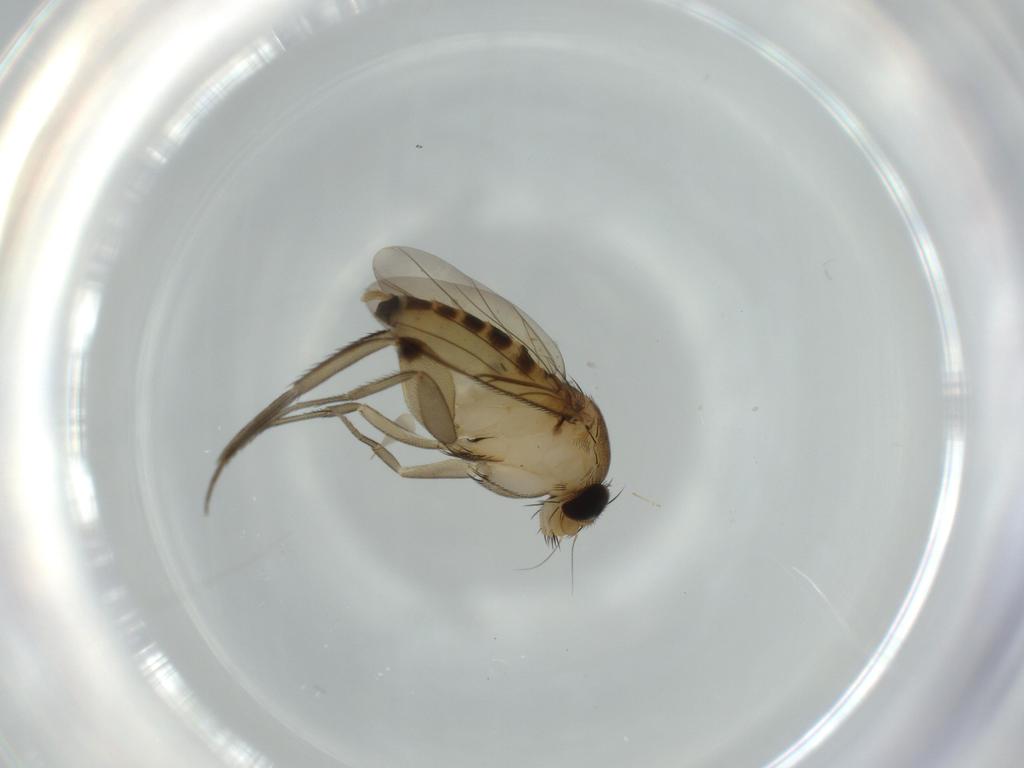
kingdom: Animalia
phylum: Arthropoda
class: Insecta
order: Diptera
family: Phoridae
